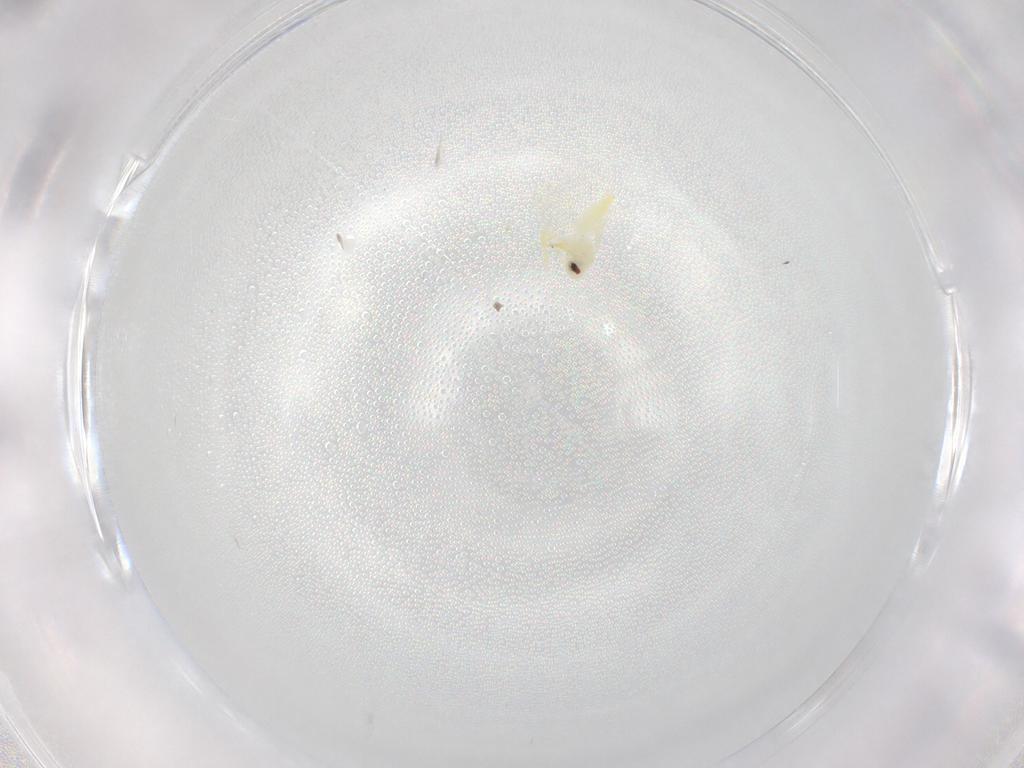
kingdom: Animalia
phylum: Arthropoda
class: Insecta
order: Hemiptera
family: Aleyrodidae
